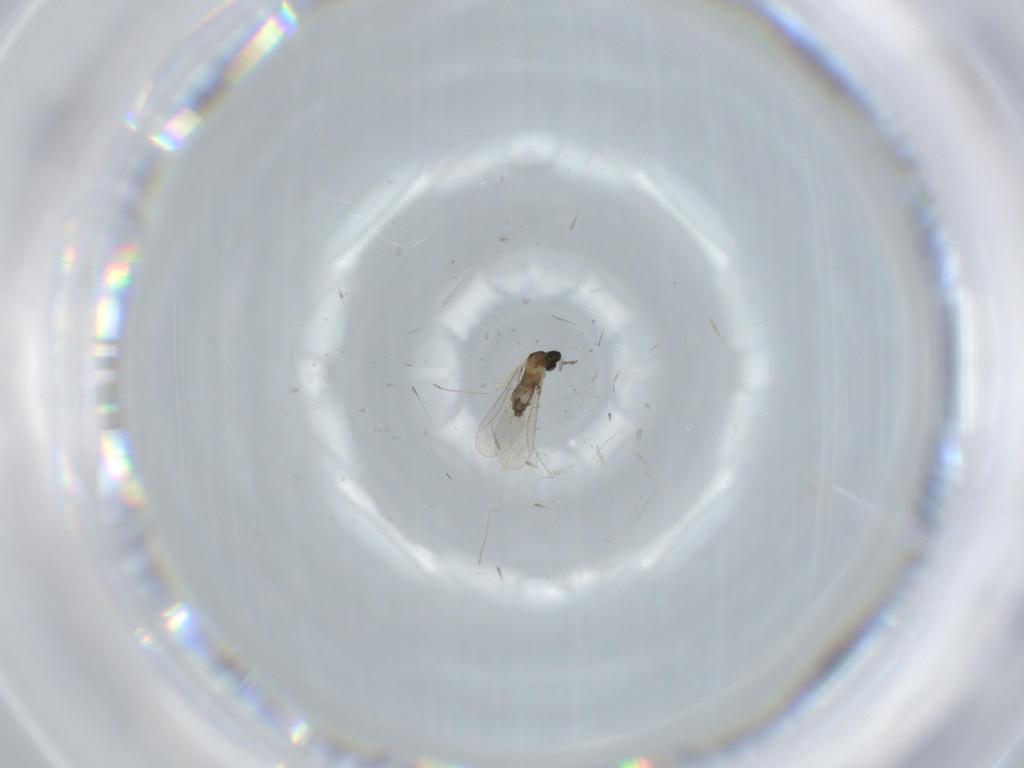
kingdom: Animalia
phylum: Arthropoda
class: Insecta
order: Diptera
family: Cecidomyiidae
